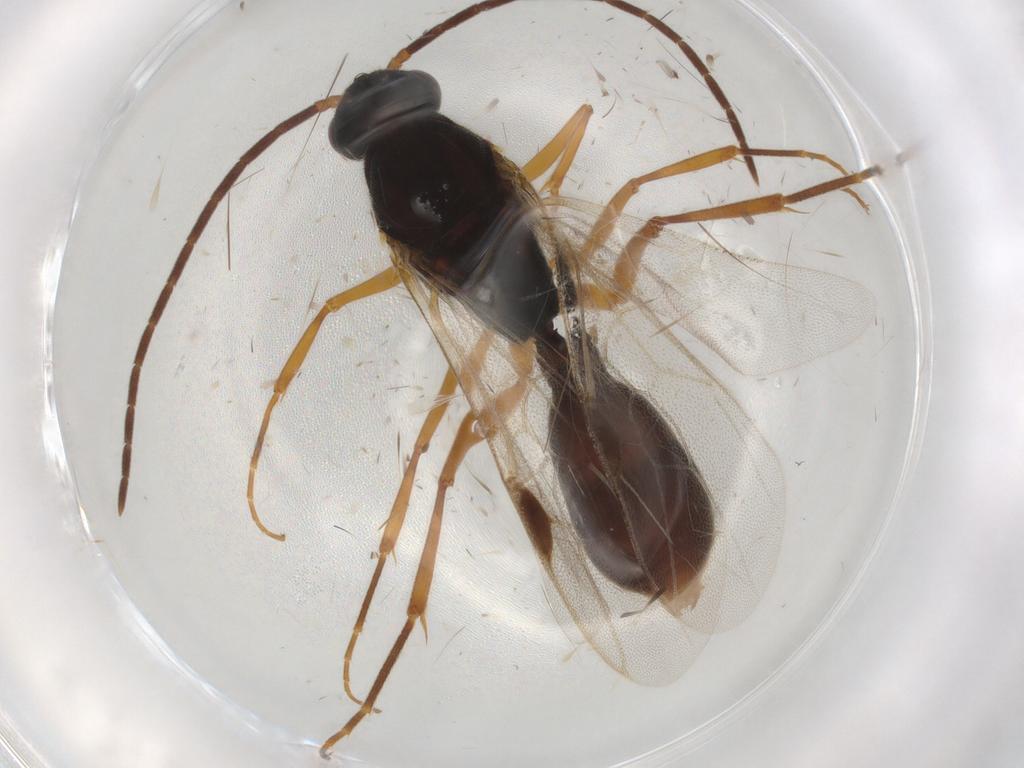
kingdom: Animalia
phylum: Arthropoda
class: Insecta
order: Hymenoptera
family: Formicidae
